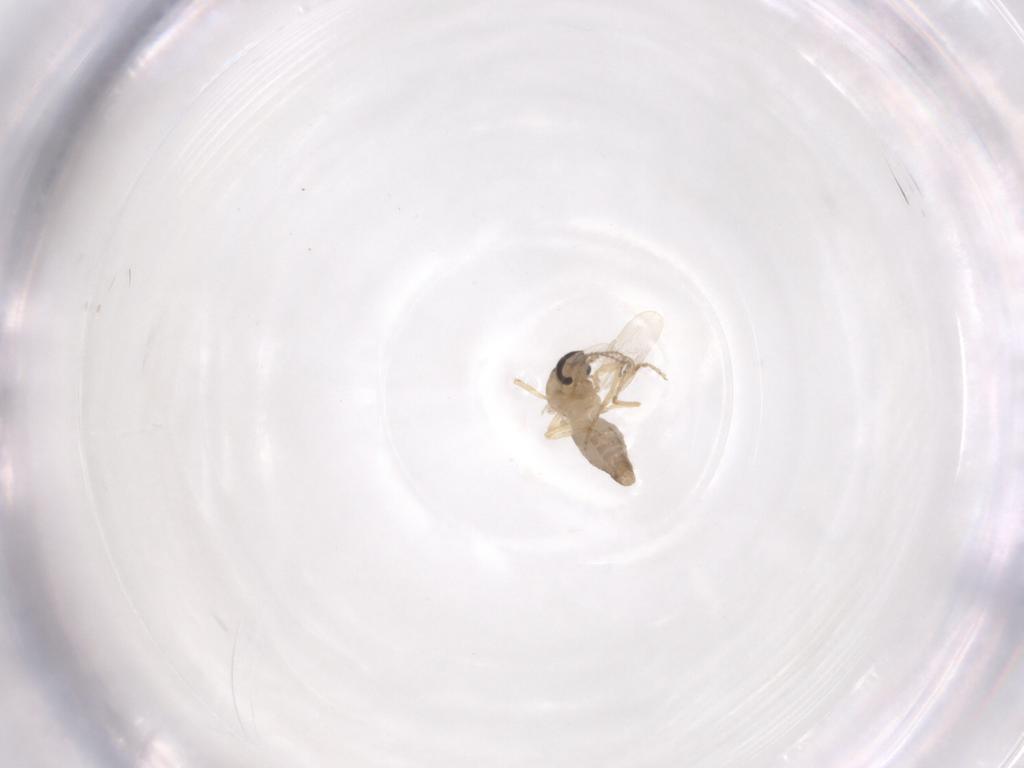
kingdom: Animalia
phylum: Arthropoda
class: Insecta
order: Diptera
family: Ceratopogonidae
